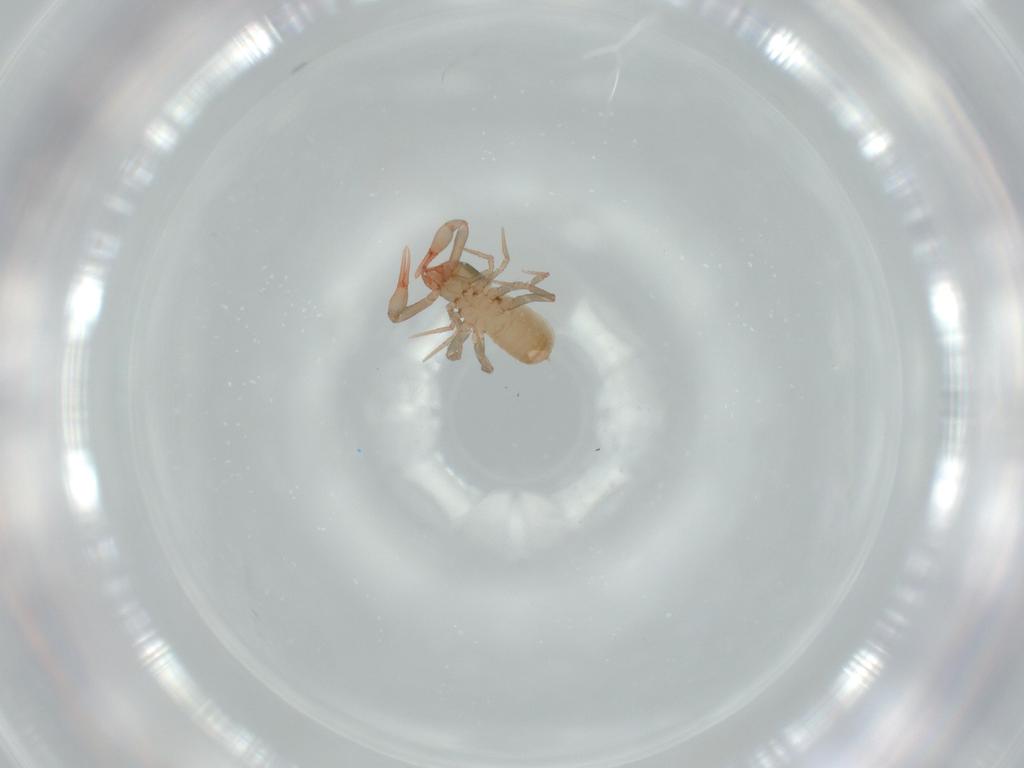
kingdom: Animalia
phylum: Arthropoda
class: Arachnida
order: Pseudoscorpiones
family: Chthoniidae
